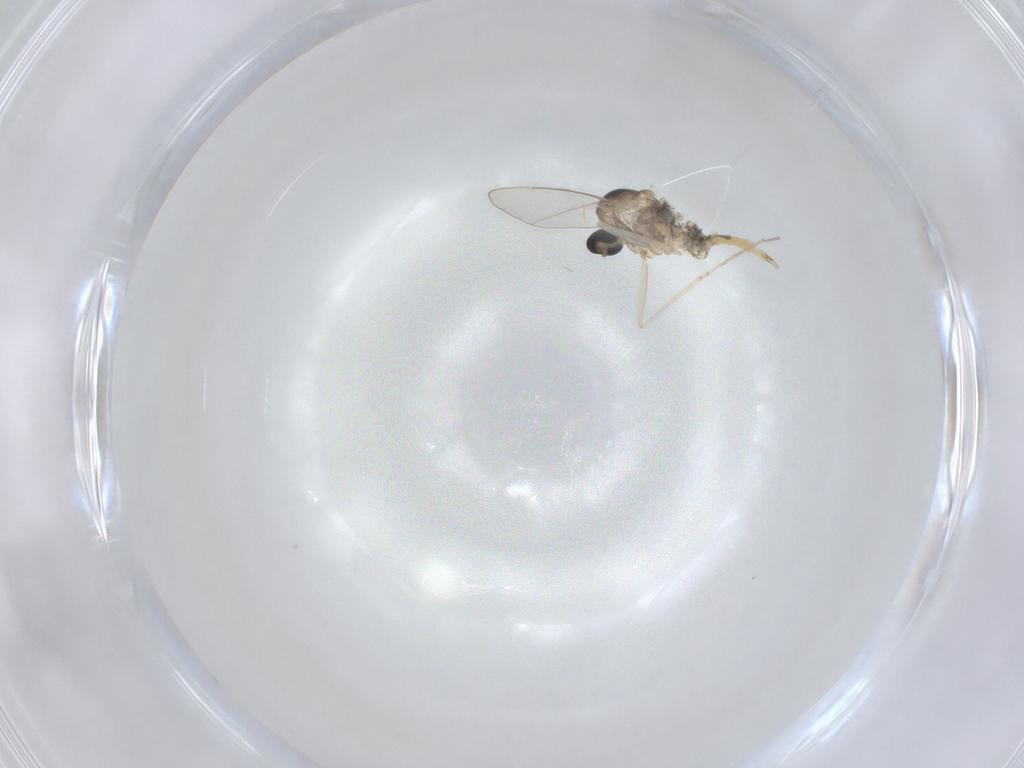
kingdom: Animalia
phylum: Arthropoda
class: Insecta
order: Diptera
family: Cecidomyiidae
